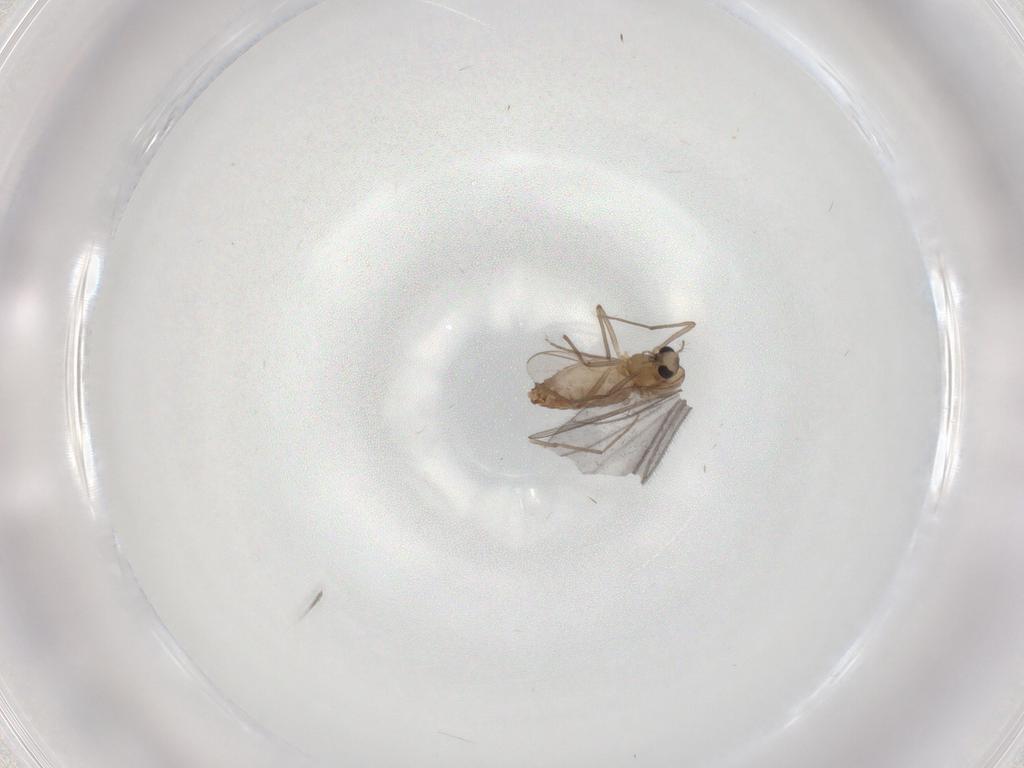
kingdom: Animalia
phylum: Arthropoda
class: Insecta
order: Diptera
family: Chironomidae
